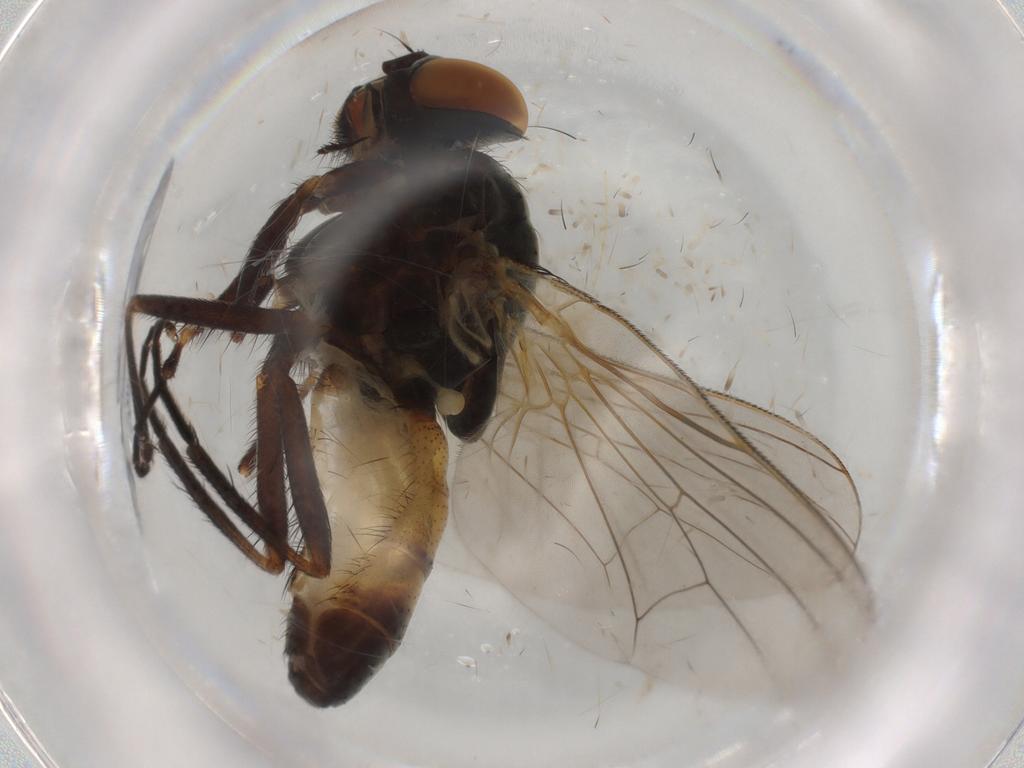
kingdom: Animalia
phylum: Arthropoda
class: Insecta
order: Diptera
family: Fannia
